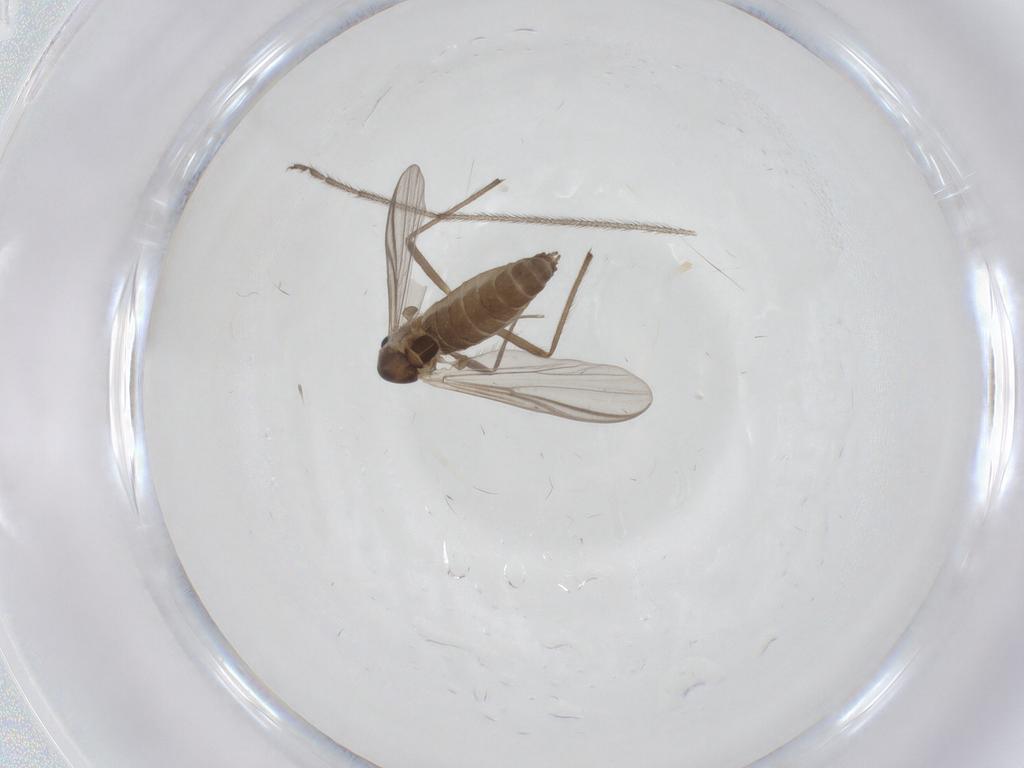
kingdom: Animalia
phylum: Arthropoda
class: Insecta
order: Diptera
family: Chironomidae
